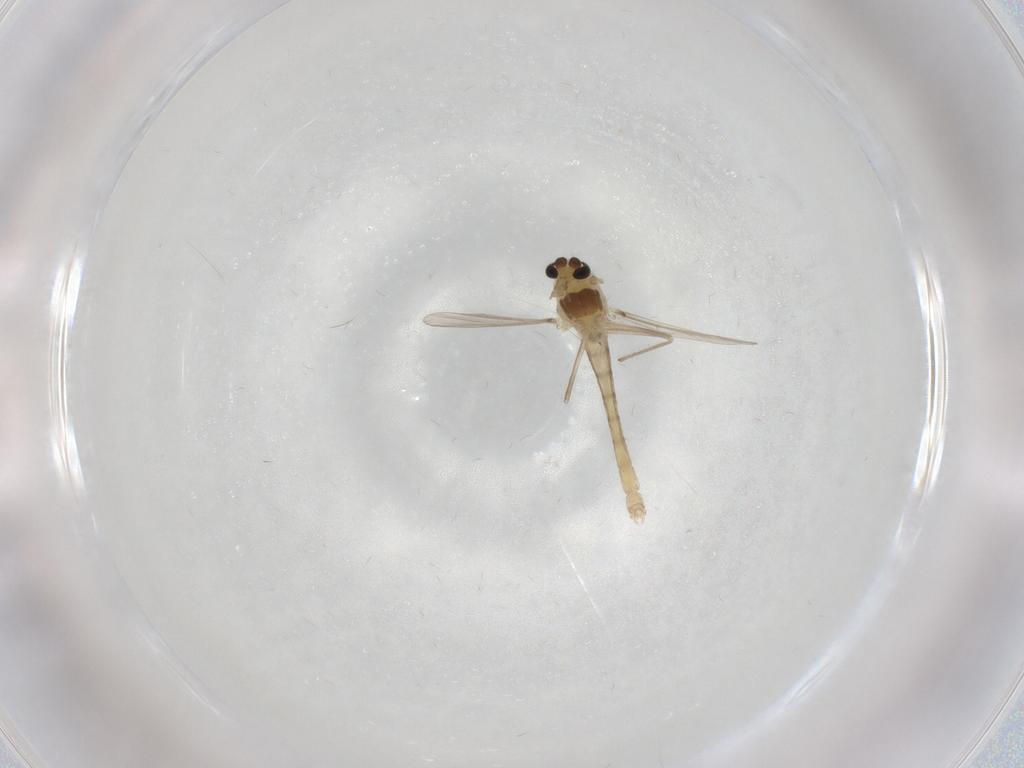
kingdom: Animalia
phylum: Arthropoda
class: Insecta
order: Diptera
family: Chironomidae
